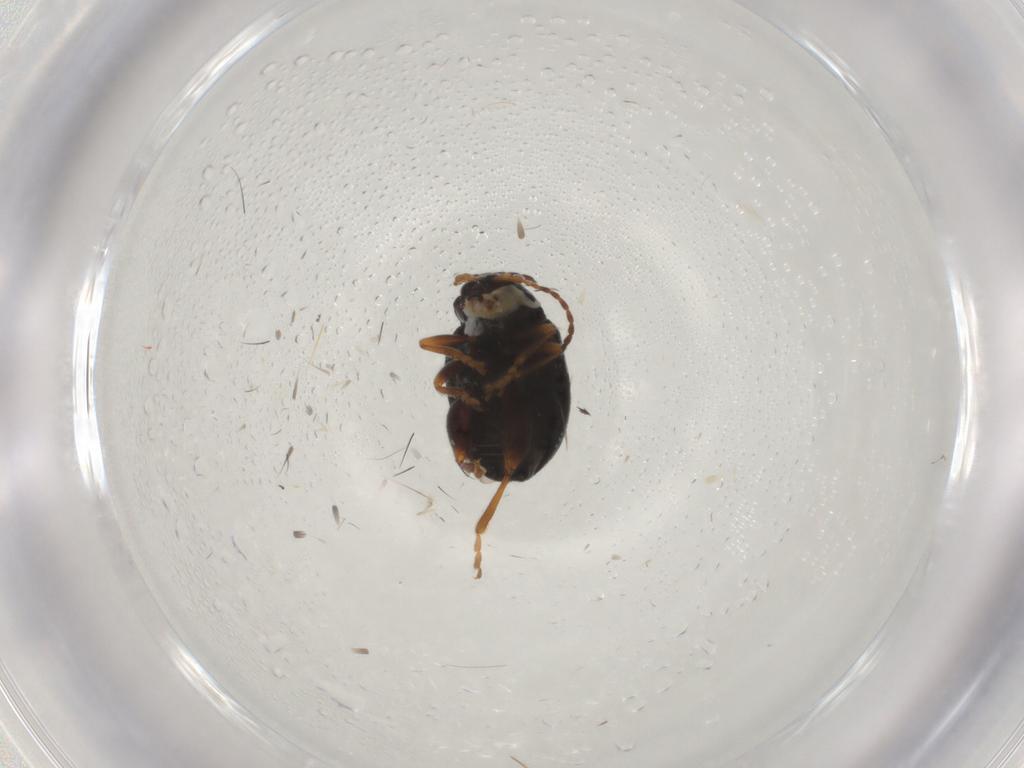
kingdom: Animalia
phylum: Arthropoda
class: Insecta
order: Coleoptera
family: Chrysomelidae
